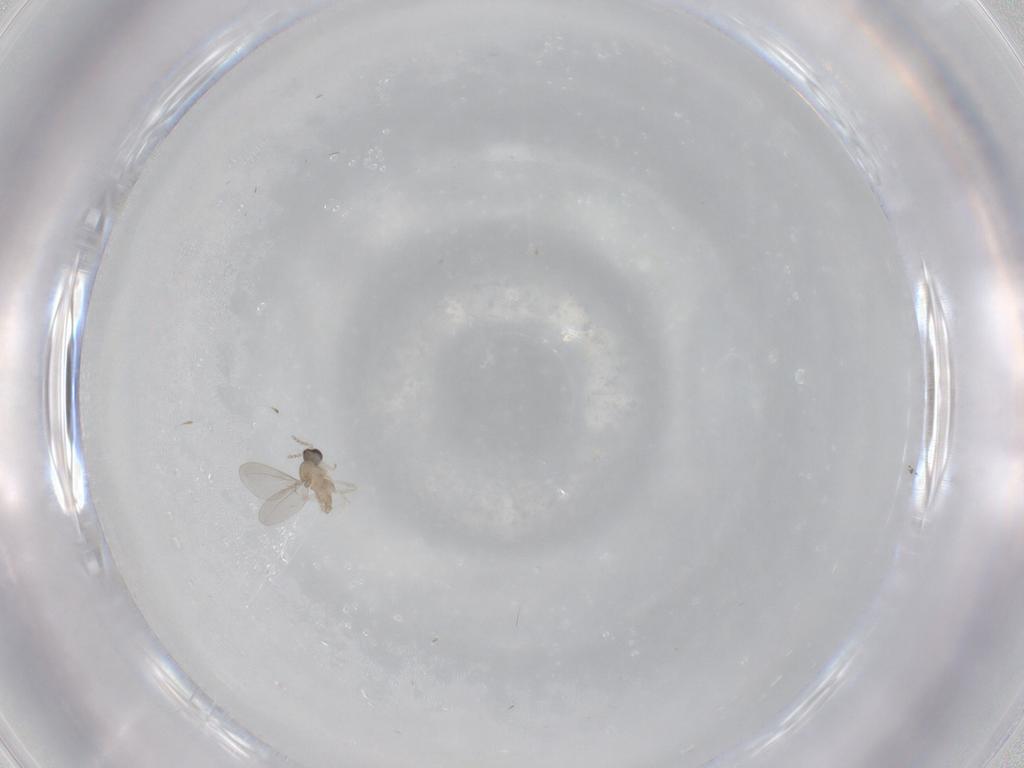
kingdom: Animalia
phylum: Arthropoda
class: Insecta
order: Diptera
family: Cecidomyiidae
